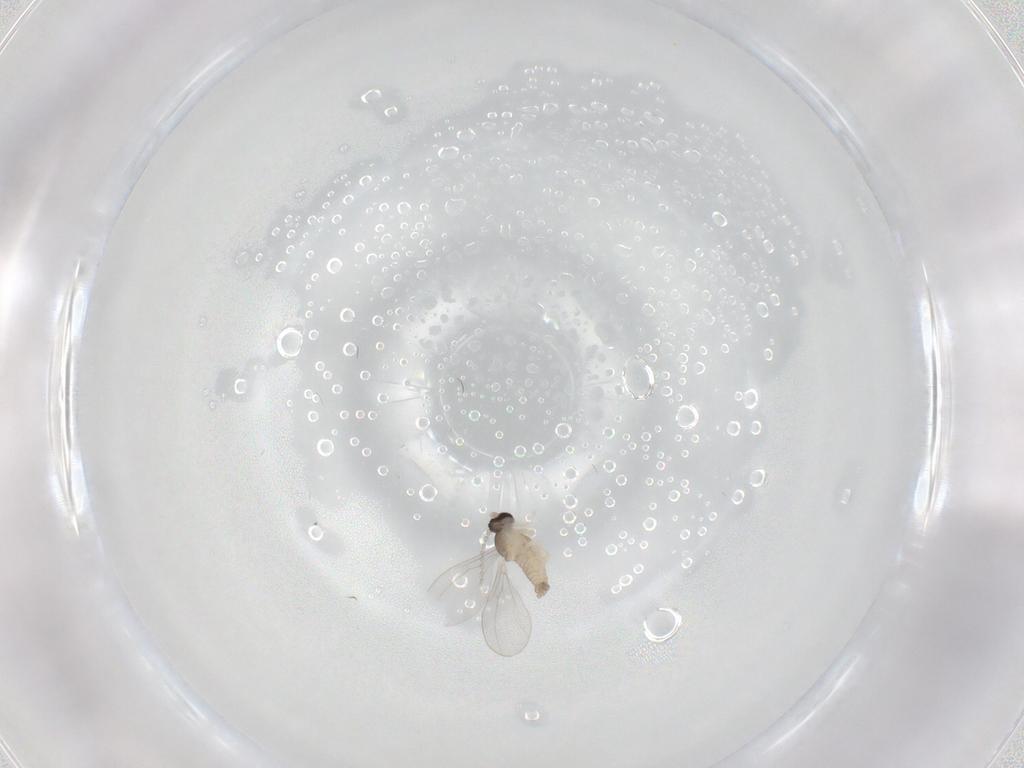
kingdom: Animalia
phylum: Arthropoda
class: Insecta
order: Diptera
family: Cecidomyiidae
